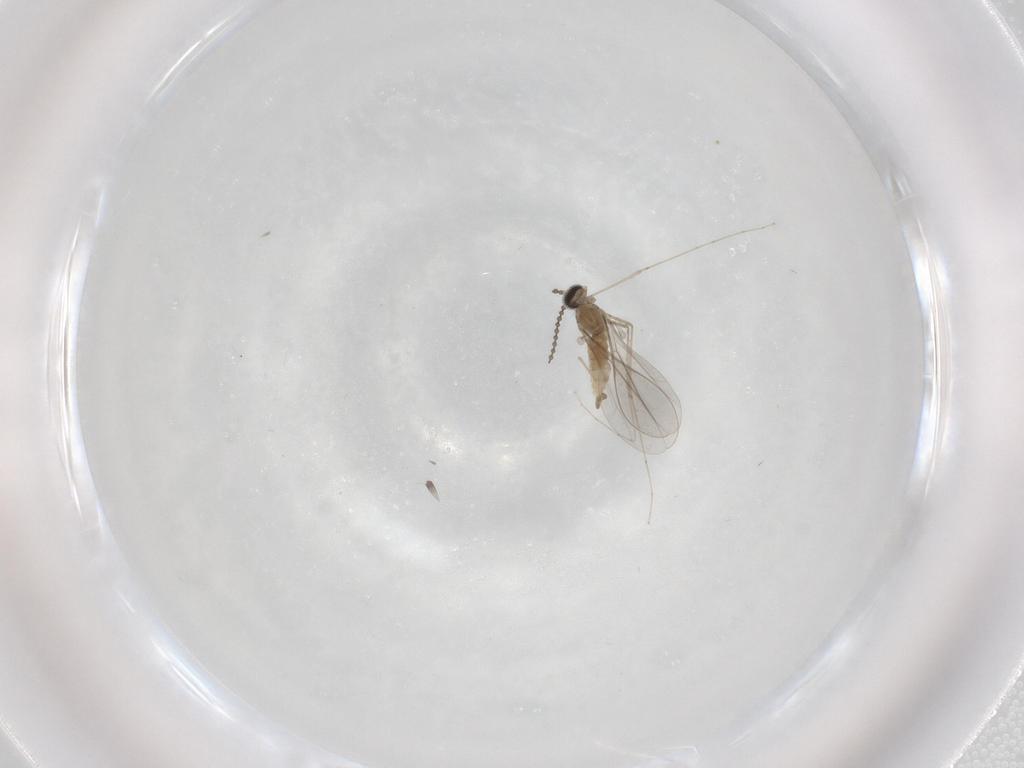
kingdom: Animalia
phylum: Arthropoda
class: Insecta
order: Diptera
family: Cecidomyiidae
